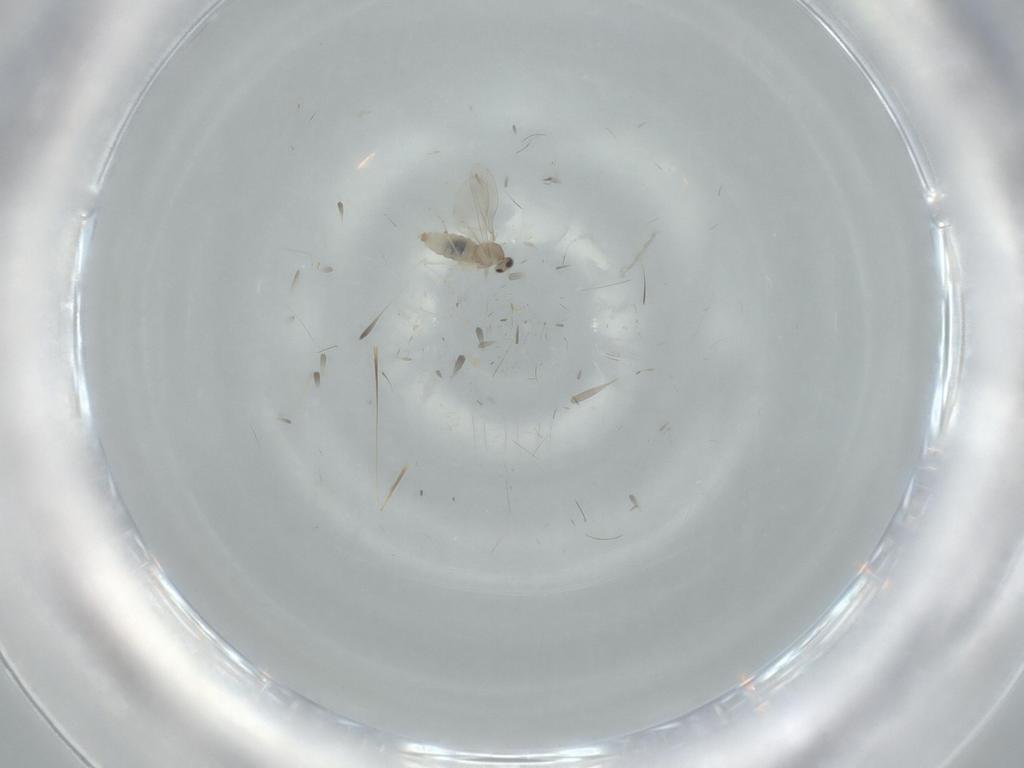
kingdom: Animalia
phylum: Arthropoda
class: Insecta
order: Diptera
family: Cecidomyiidae
